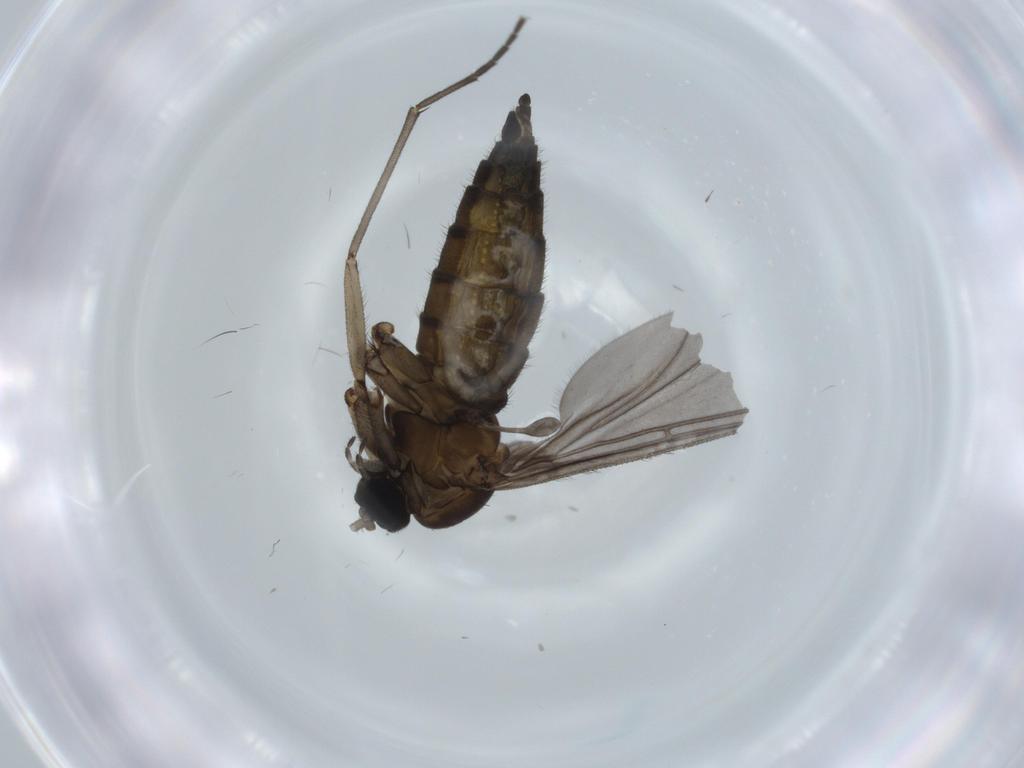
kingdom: Animalia
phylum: Arthropoda
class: Insecta
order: Diptera
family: Sciaridae
